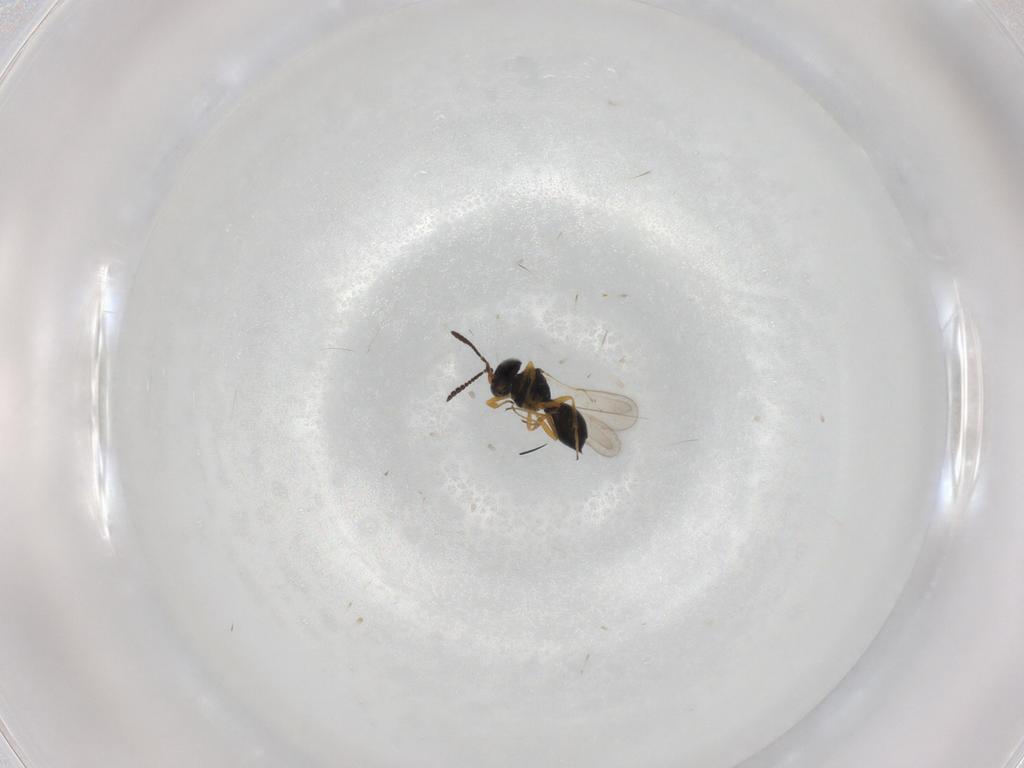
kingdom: Animalia
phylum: Arthropoda
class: Insecta
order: Hymenoptera
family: Scelionidae
